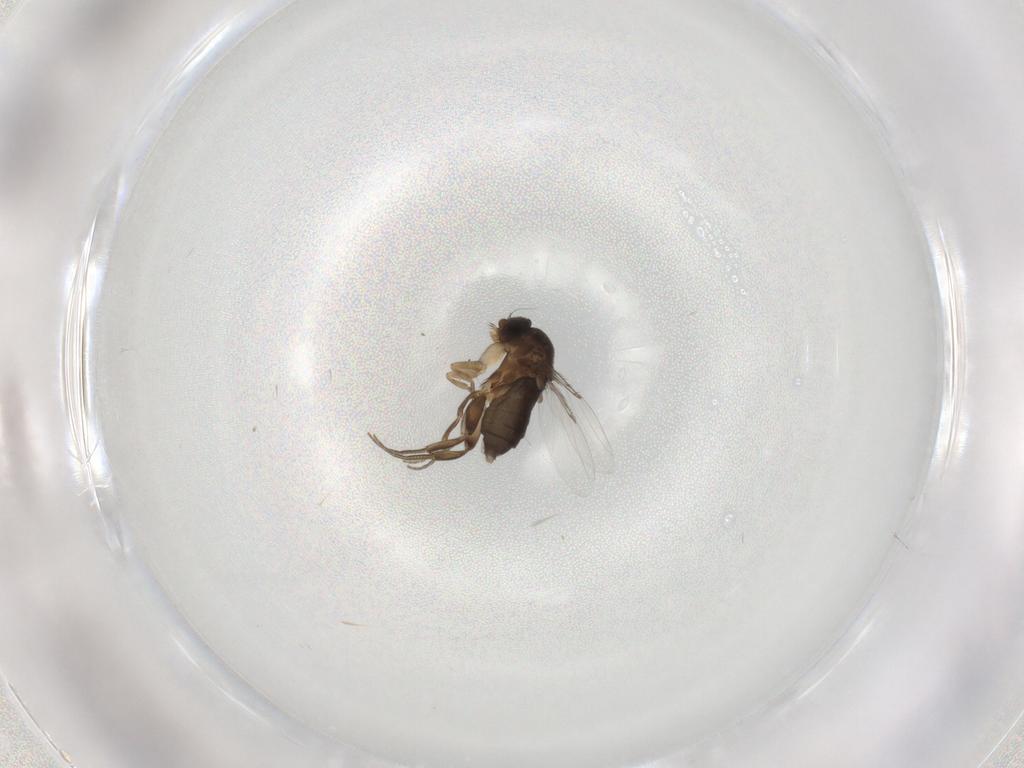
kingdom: Animalia
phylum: Arthropoda
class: Insecta
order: Diptera
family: Phoridae
